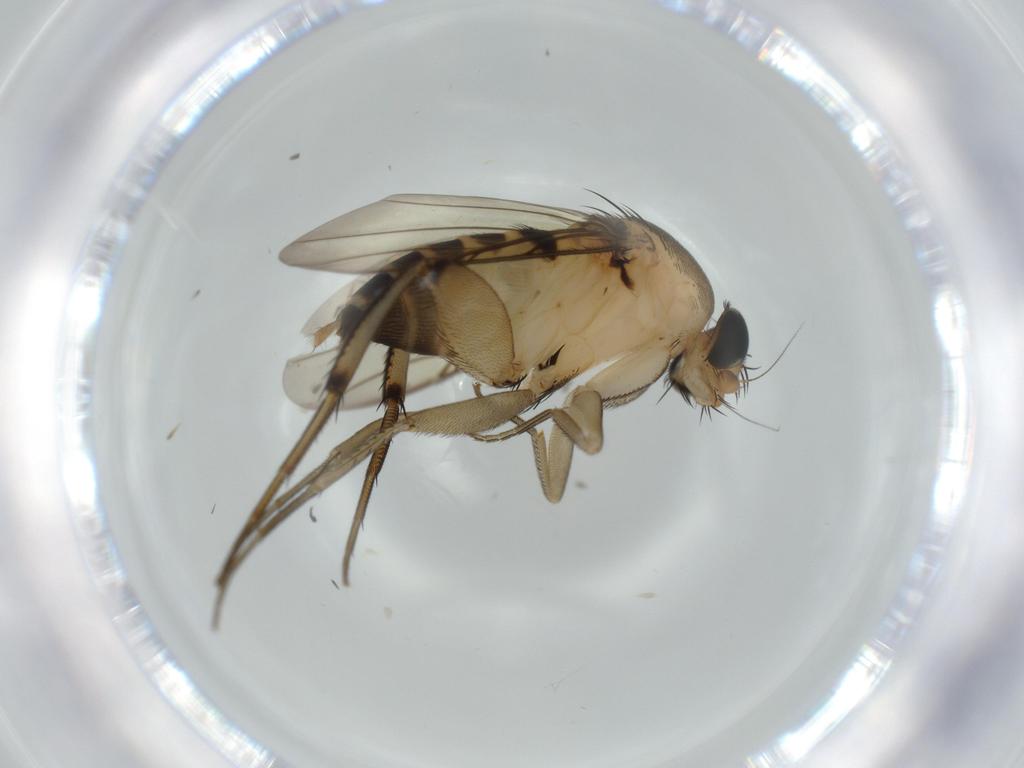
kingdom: Animalia
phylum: Arthropoda
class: Insecta
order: Diptera
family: Phoridae
